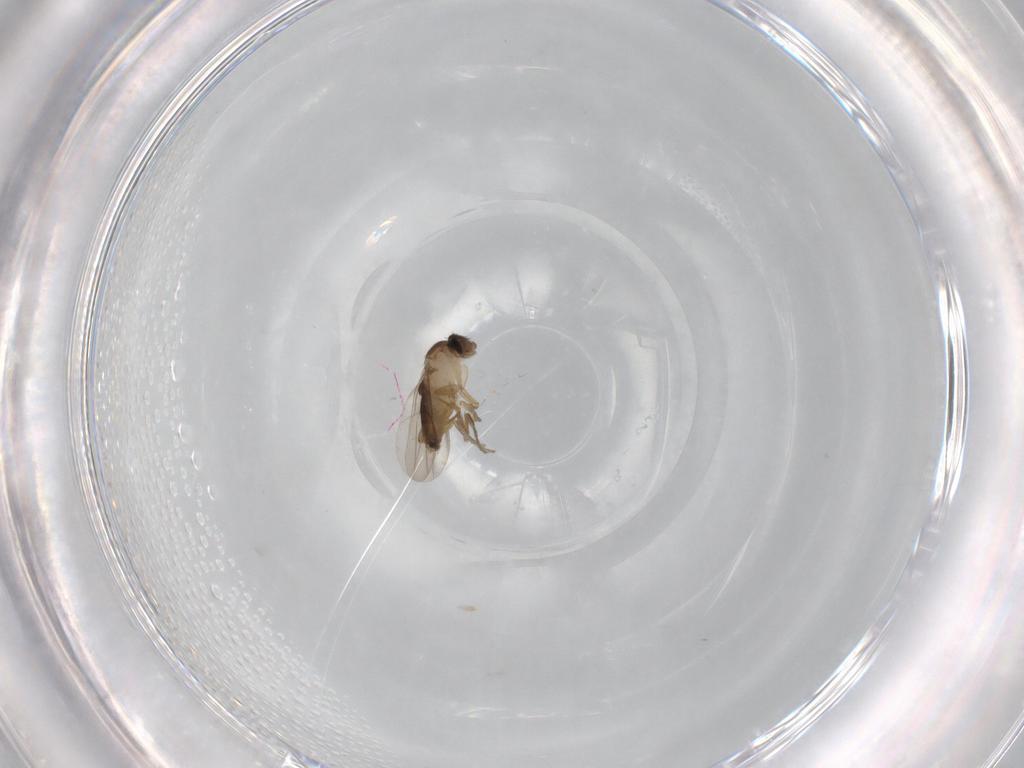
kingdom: Animalia
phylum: Arthropoda
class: Insecta
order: Diptera
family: Phoridae
